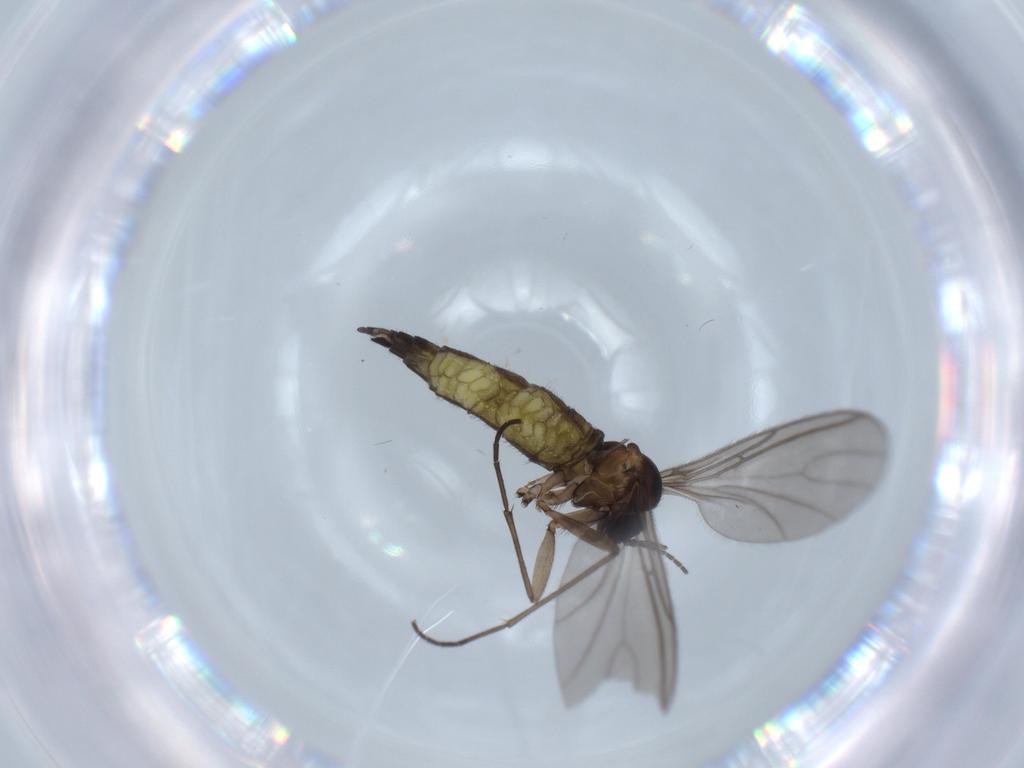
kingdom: Animalia
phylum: Arthropoda
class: Insecta
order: Diptera
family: Sciaridae
